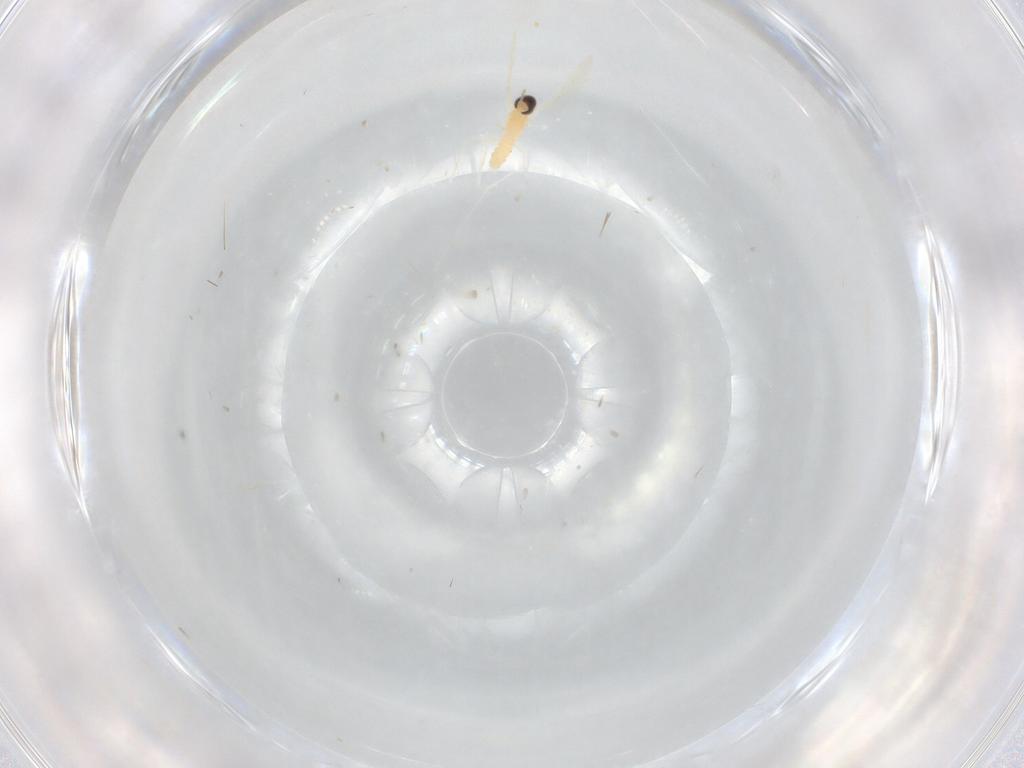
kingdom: Animalia
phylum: Arthropoda
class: Insecta
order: Diptera
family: Cecidomyiidae
